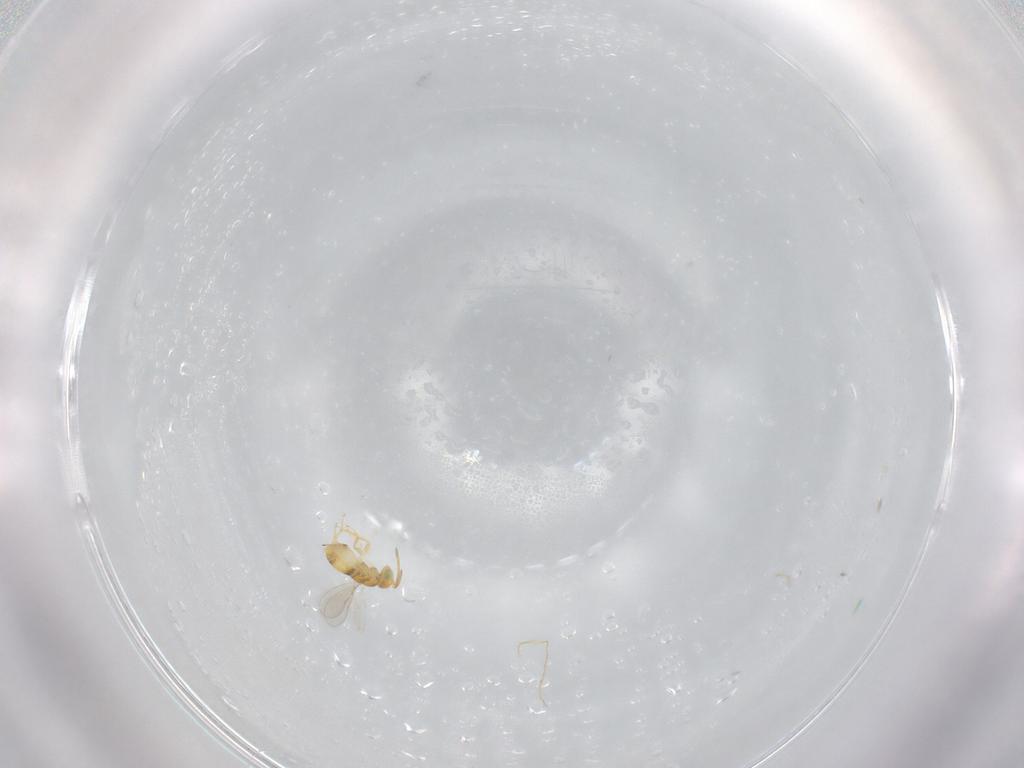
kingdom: Animalia
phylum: Arthropoda
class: Insecta
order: Hymenoptera
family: Aphelinidae
